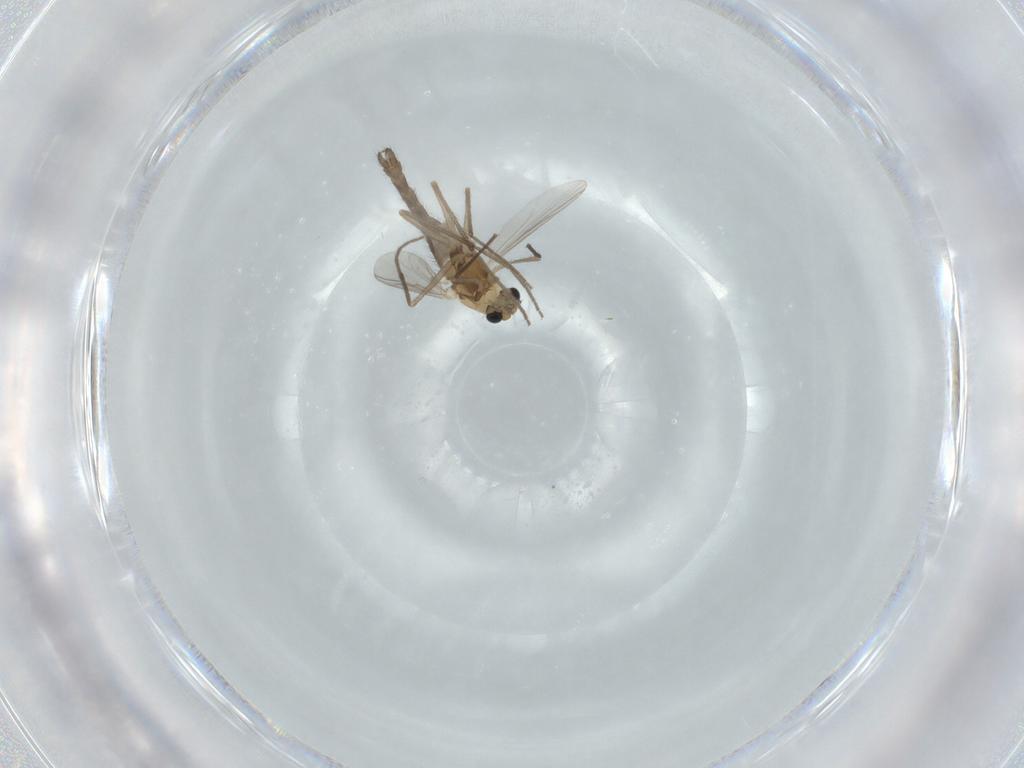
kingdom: Animalia
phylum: Arthropoda
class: Insecta
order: Diptera
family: Chironomidae
